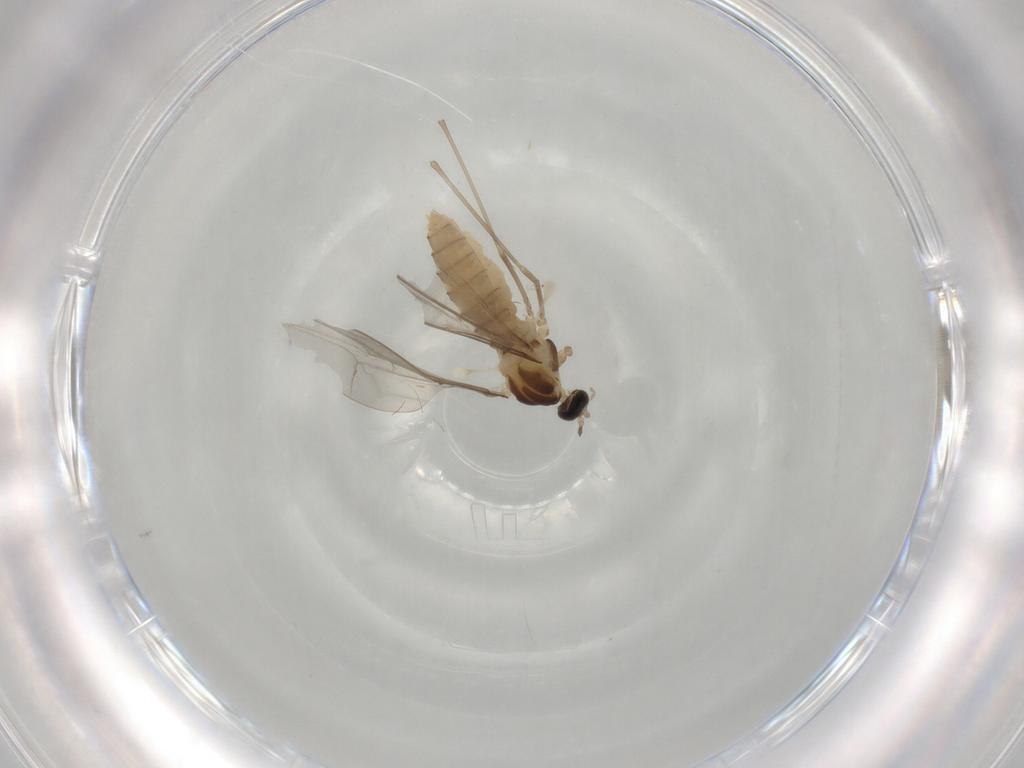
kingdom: Animalia
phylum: Arthropoda
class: Insecta
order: Diptera
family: Cecidomyiidae
